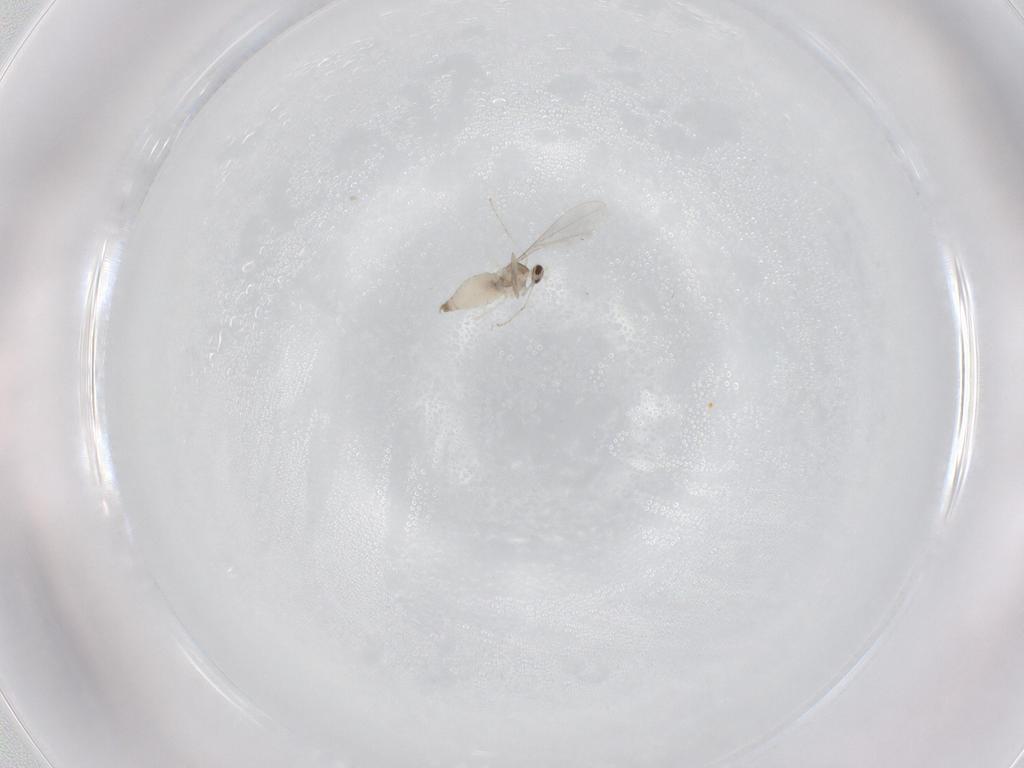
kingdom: Animalia
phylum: Arthropoda
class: Insecta
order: Diptera
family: Cecidomyiidae
